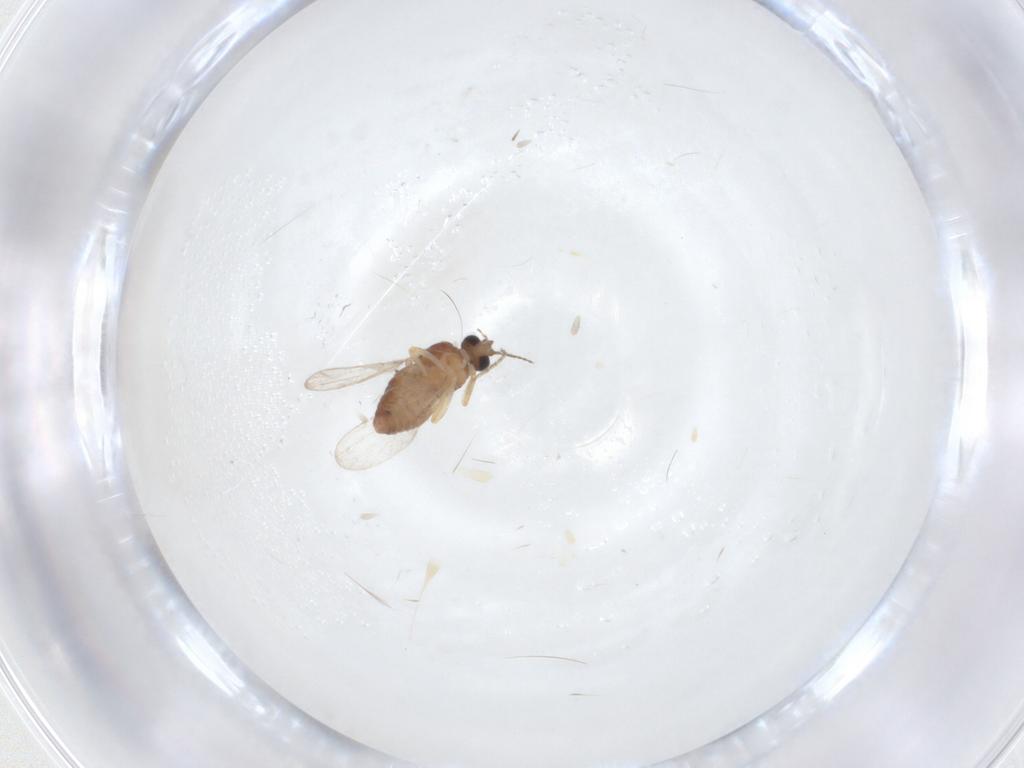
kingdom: Animalia
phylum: Arthropoda
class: Insecta
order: Diptera
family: Ceratopogonidae
